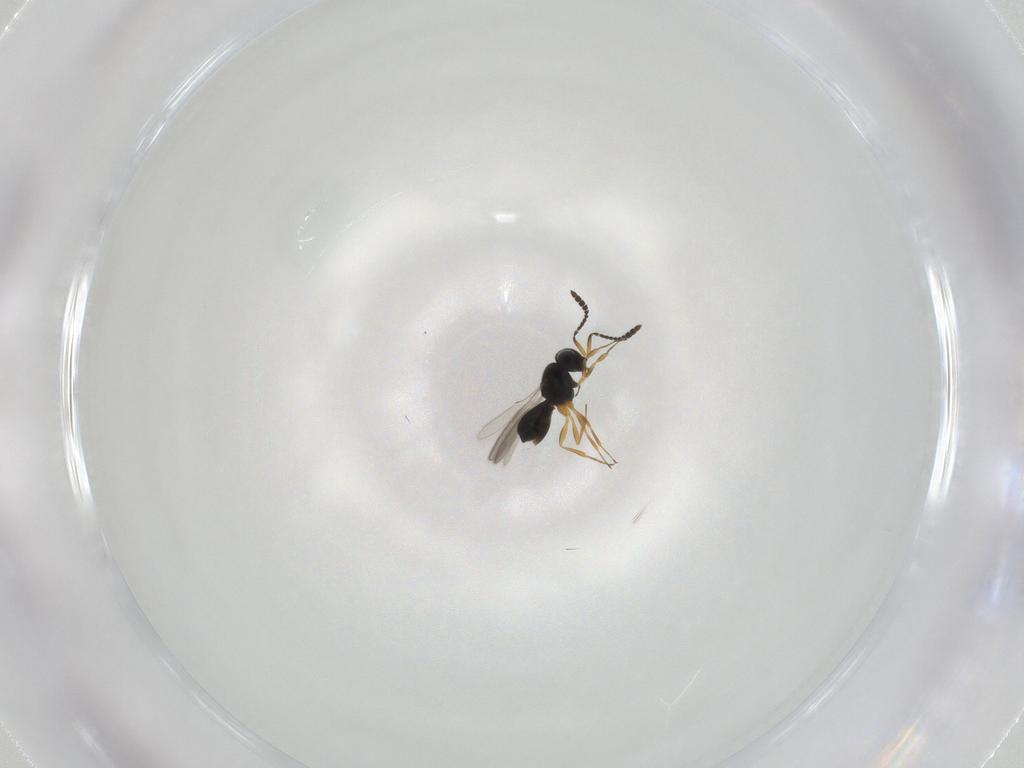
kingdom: Animalia
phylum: Arthropoda
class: Insecta
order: Hymenoptera
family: Scelionidae
